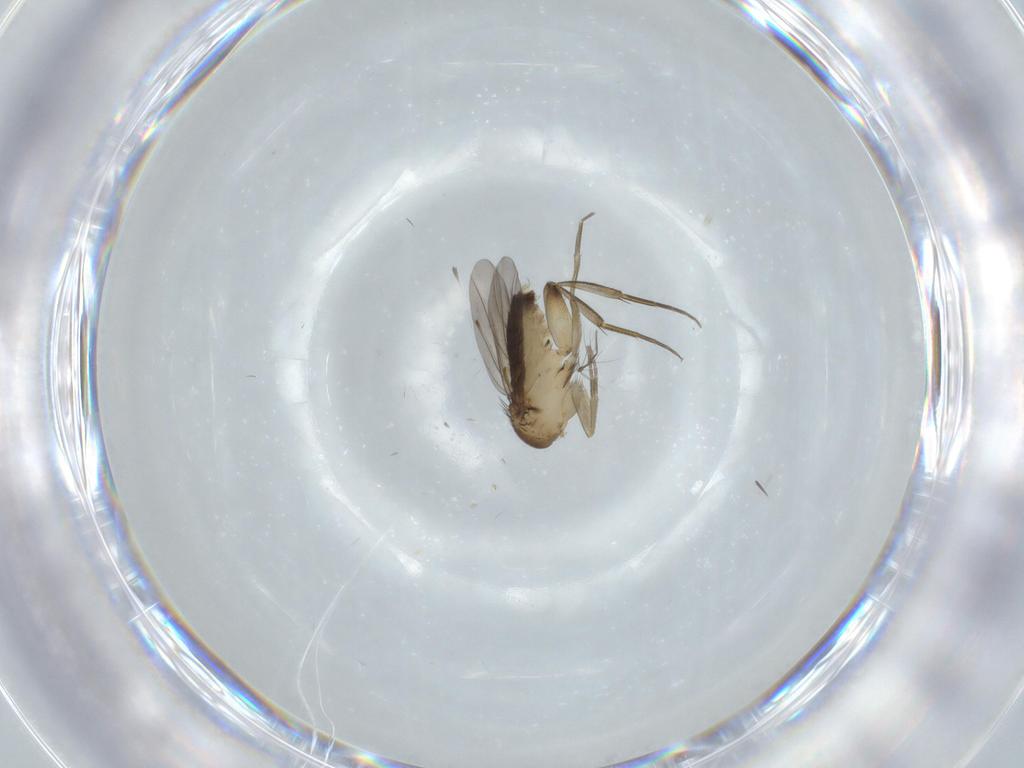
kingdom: Animalia
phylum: Arthropoda
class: Insecta
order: Diptera
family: Phoridae
